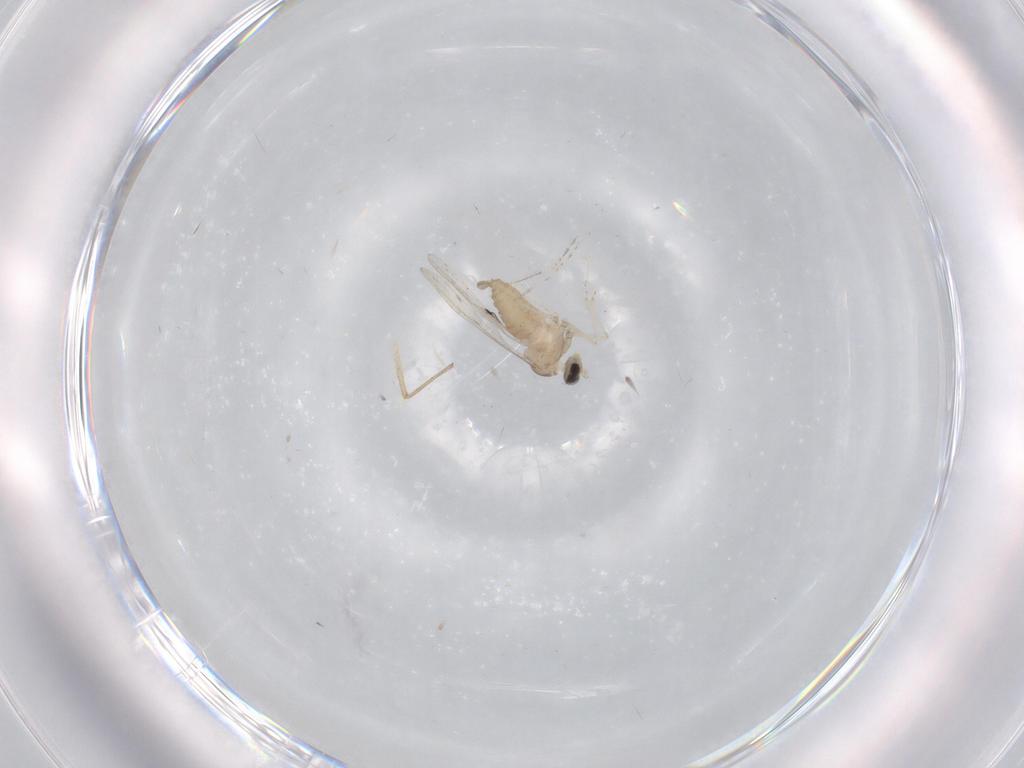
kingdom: Animalia
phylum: Arthropoda
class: Insecta
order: Diptera
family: Cecidomyiidae
